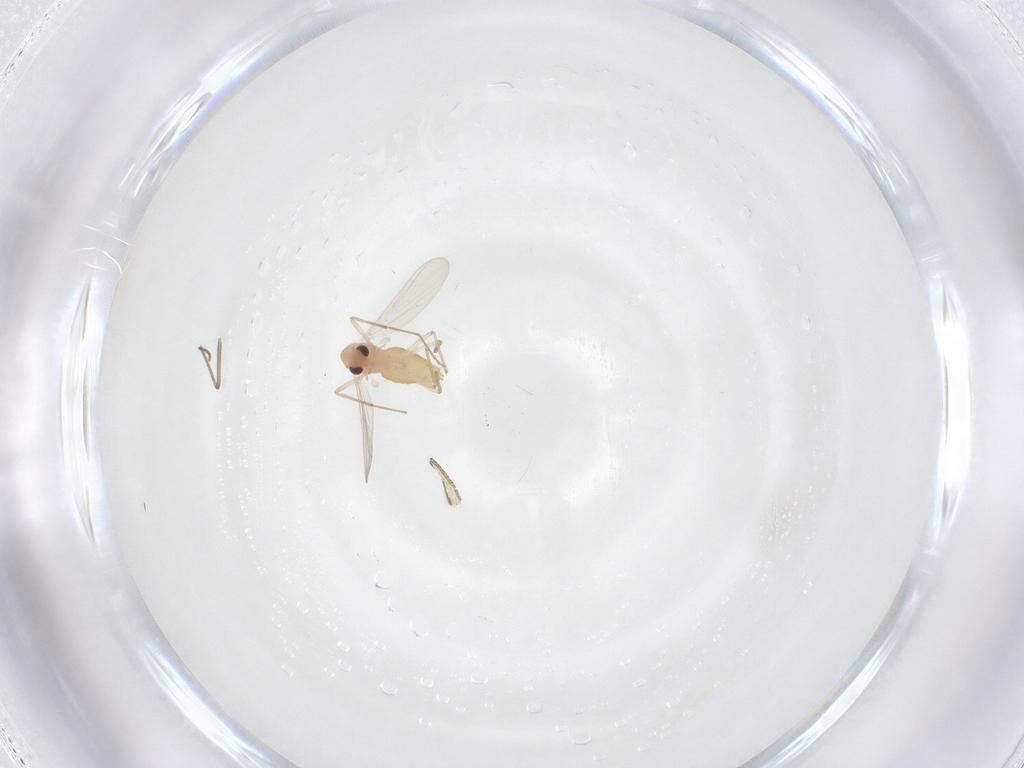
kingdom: Animalia
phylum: Arthropoda
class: Insecta
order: Diptera
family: Chironomidae
